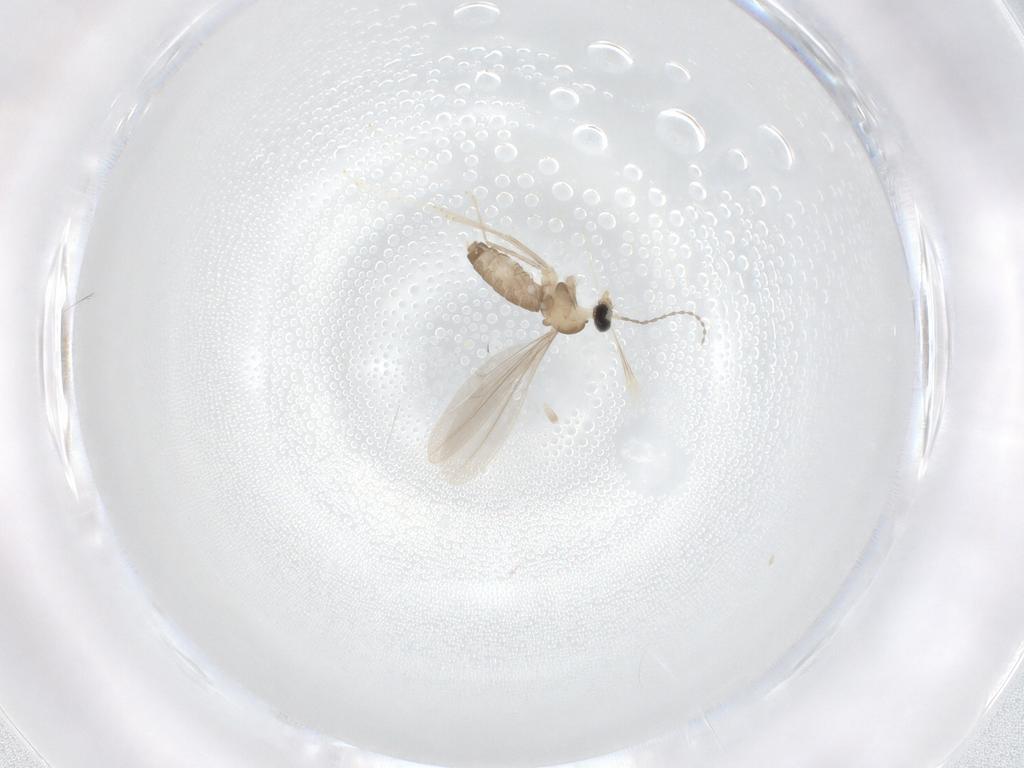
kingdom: Animalia
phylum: Arthropoda
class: Insecta
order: Diptera
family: Cecidomyiidae
